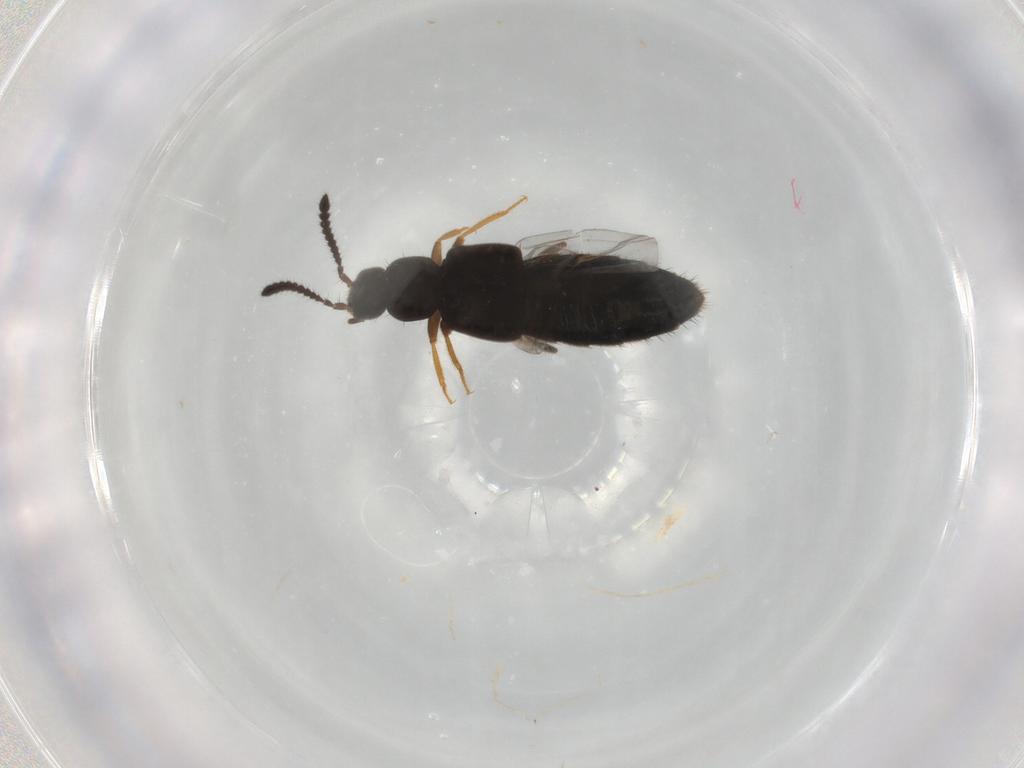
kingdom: Animalia
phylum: Arthropoda
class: Insecta
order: Coleoptera
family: Staphylinidae
